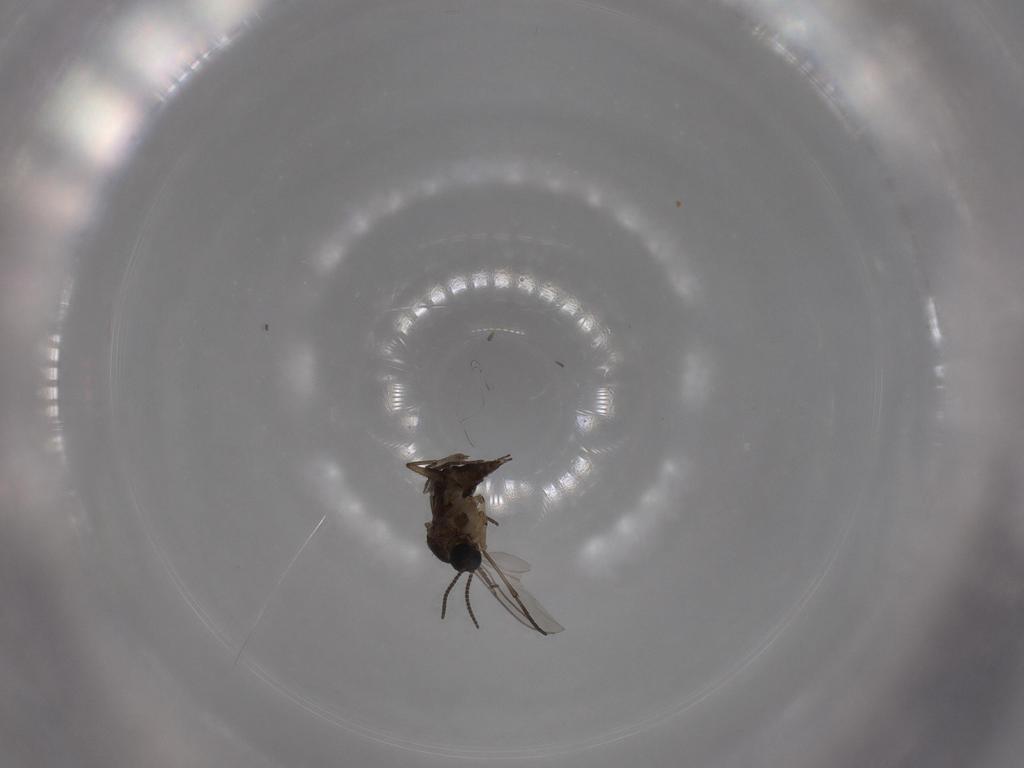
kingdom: Animalia
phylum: Arthropoda
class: Insecta
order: Diptera
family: Sciaridae
